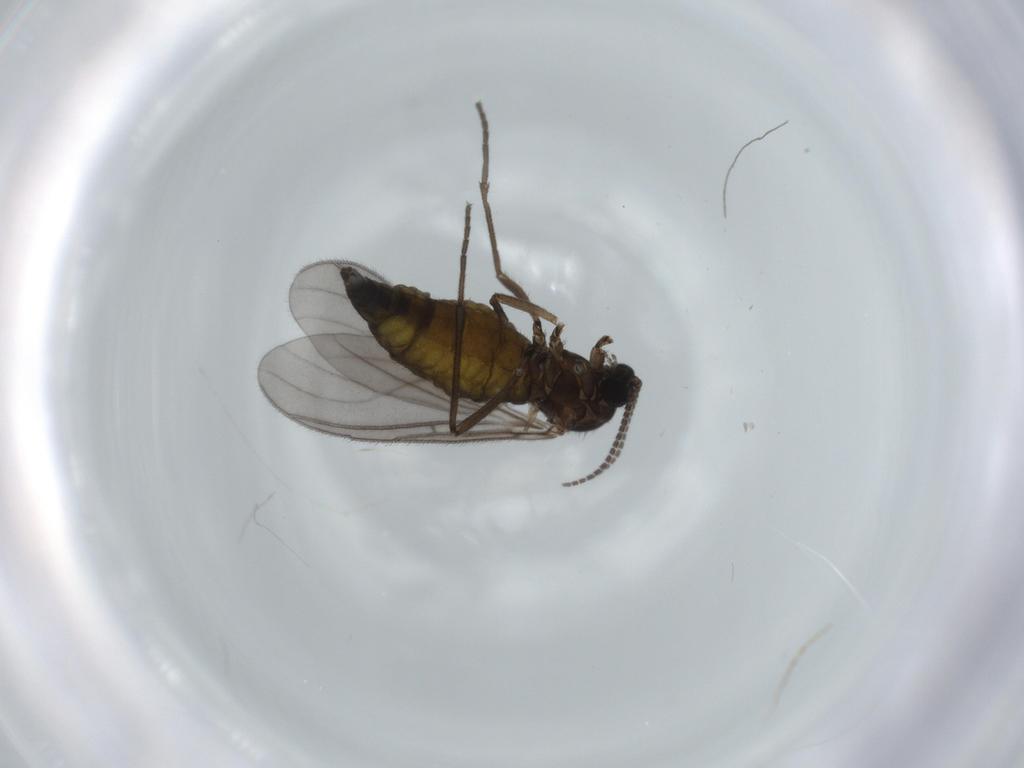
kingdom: Animalia
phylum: Arthropoda
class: Insecta
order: Diptera
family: Sciaridae
